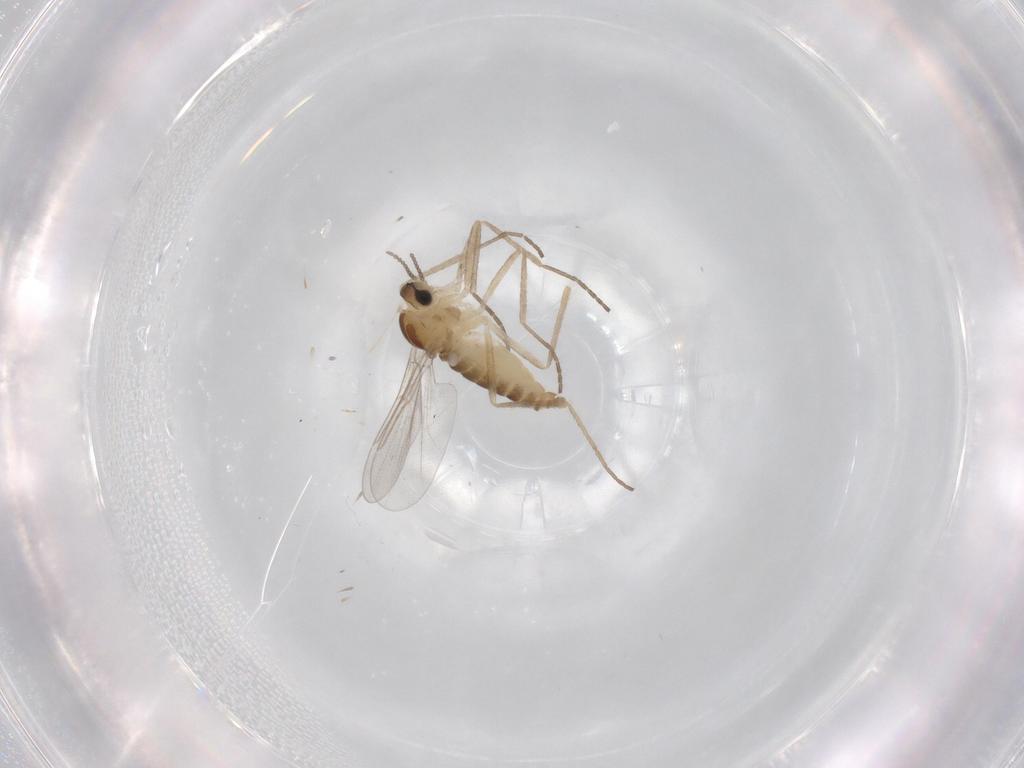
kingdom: Animalia
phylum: Arthropoda
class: Insecta
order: Diptera
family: Cecidomyiidae
